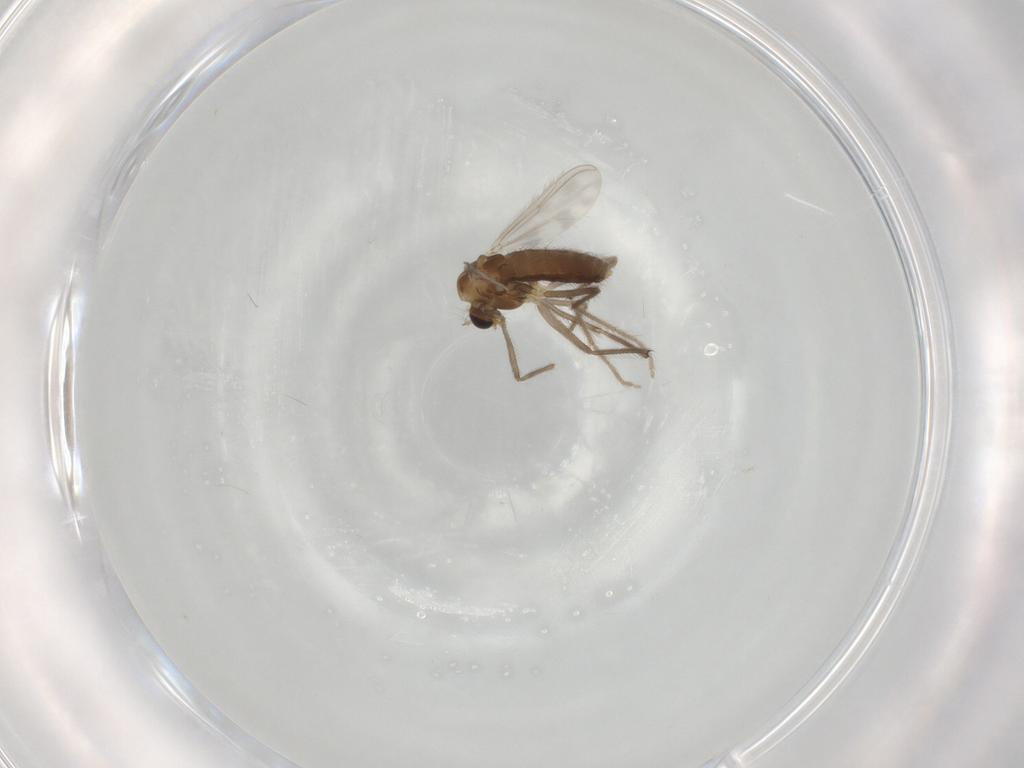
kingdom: Animalia
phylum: Arthropoda
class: Insecta
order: Diptera
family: Chironomidae
